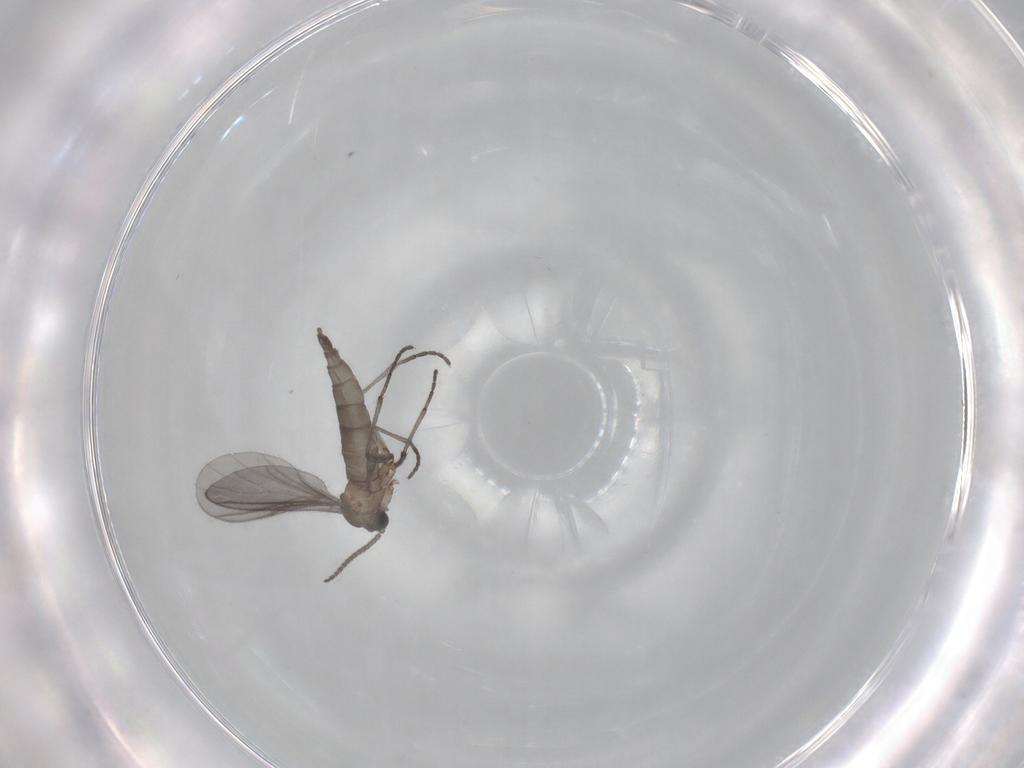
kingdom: Animalia
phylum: Arthropoda
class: Insecta
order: Diptera
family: Sciaridae
